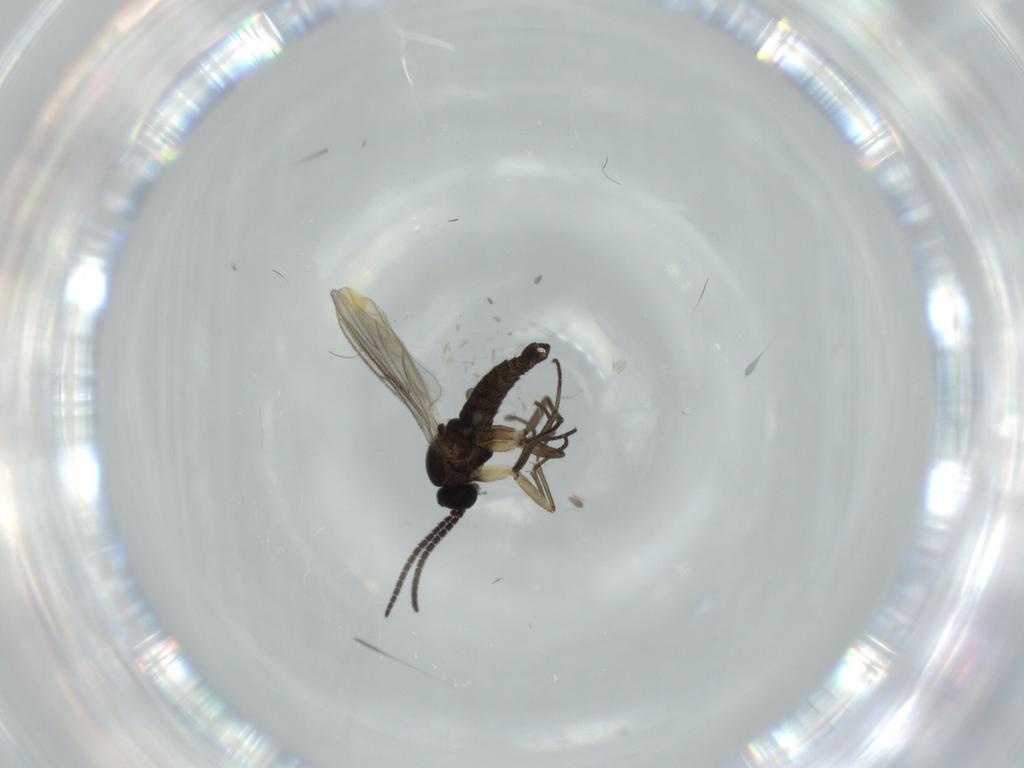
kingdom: Animalia
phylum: Arthropoda
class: Insecta
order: Diptera
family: Sciaridae
